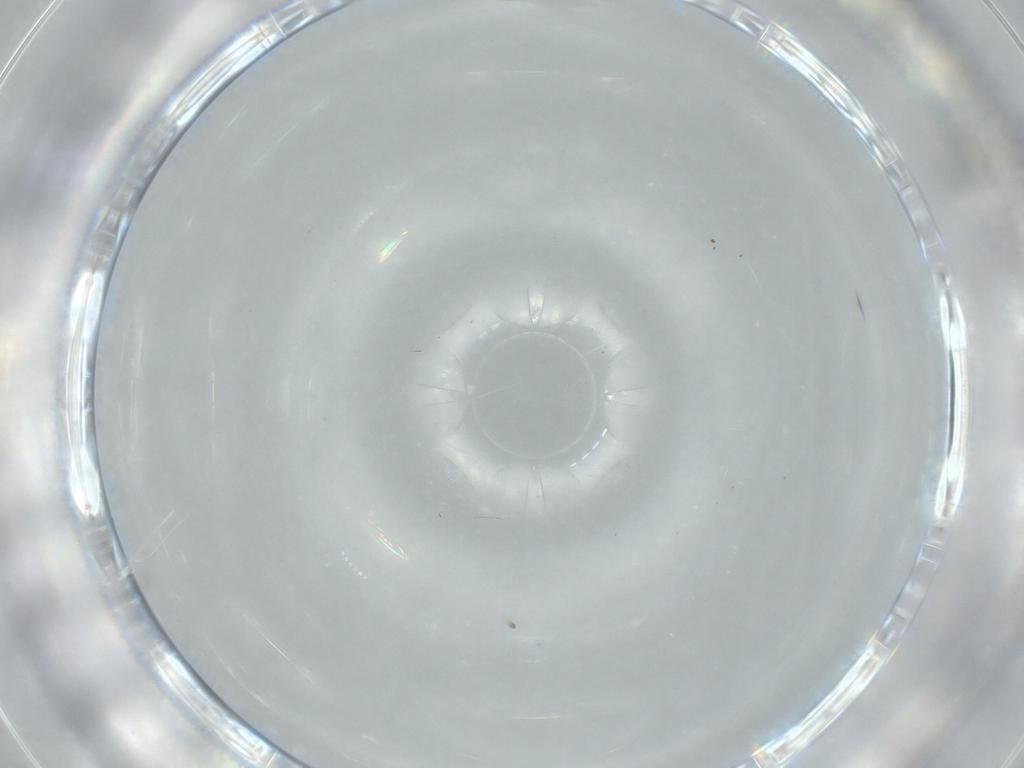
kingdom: Animalia
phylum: Arthropoda
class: Insecta
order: Diptera
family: Cecidomyiidae
